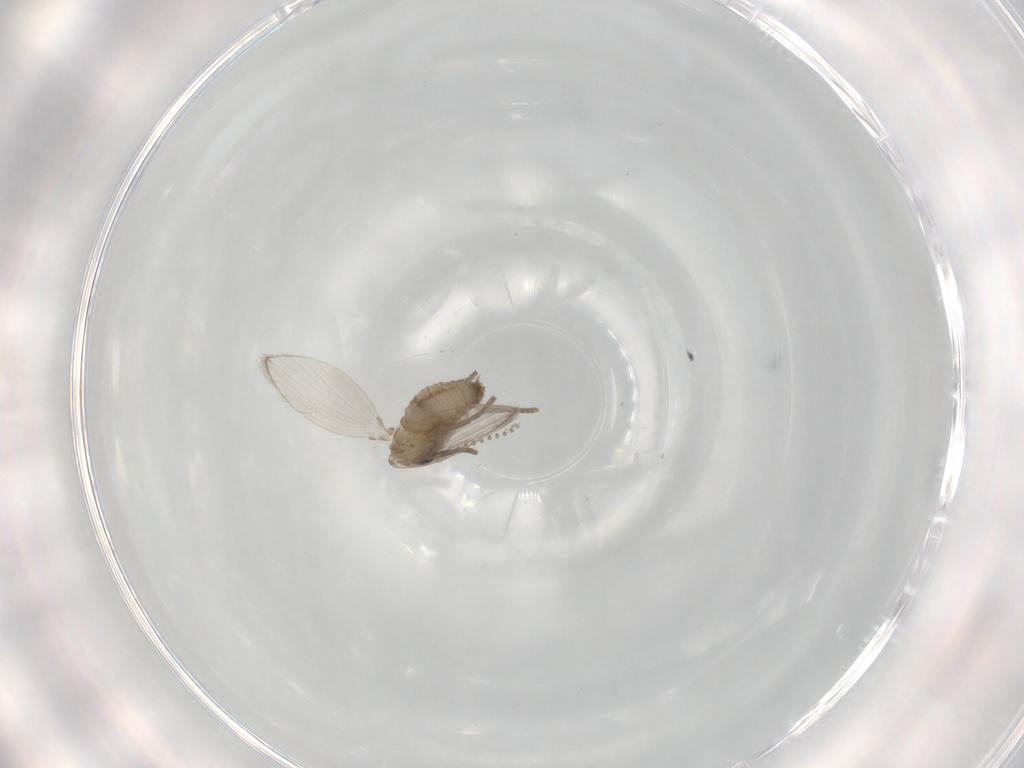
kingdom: Animalia
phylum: Arthropoda
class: Insecta
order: Diptera
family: Psychodidae
